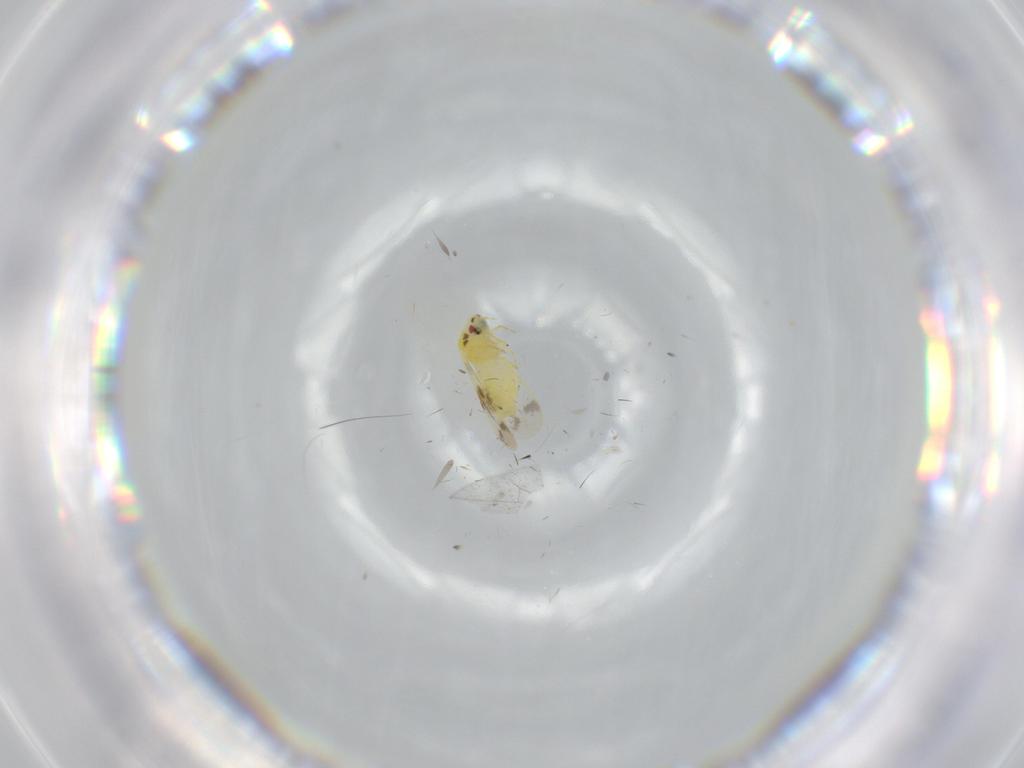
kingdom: Animalia
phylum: Arthropoda
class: Insecta
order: Hemiptera
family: Aleyrodidae
